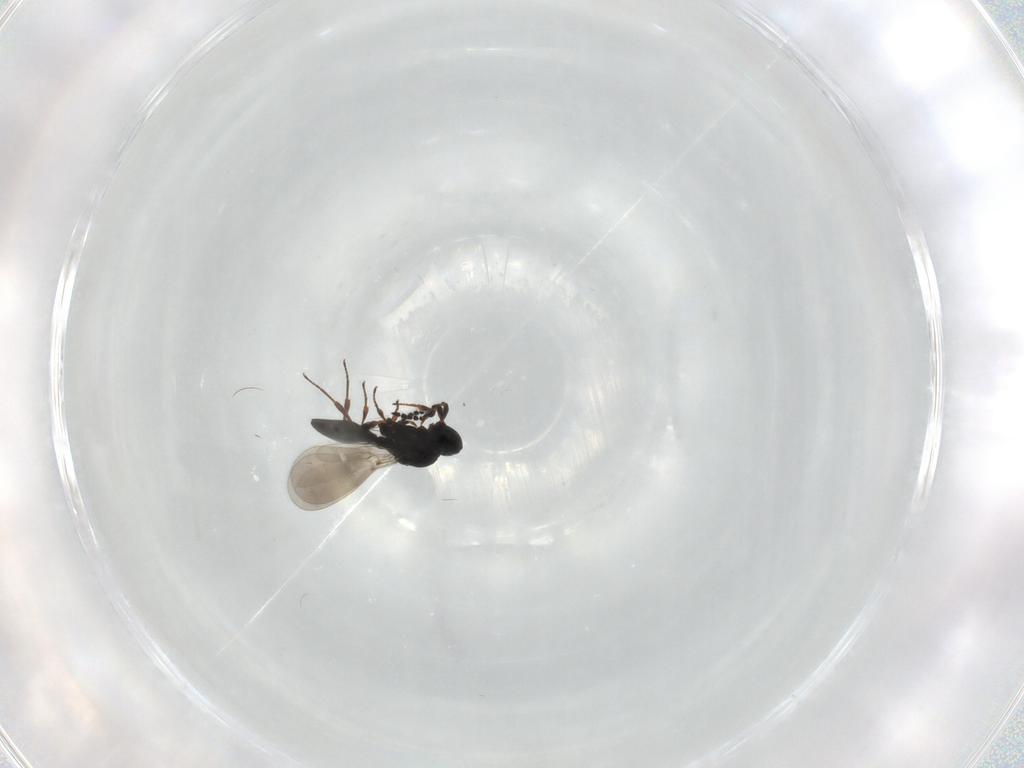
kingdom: Animalia
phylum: Arthropoda
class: Insecta
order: Hymenoptera
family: Platygastridae
